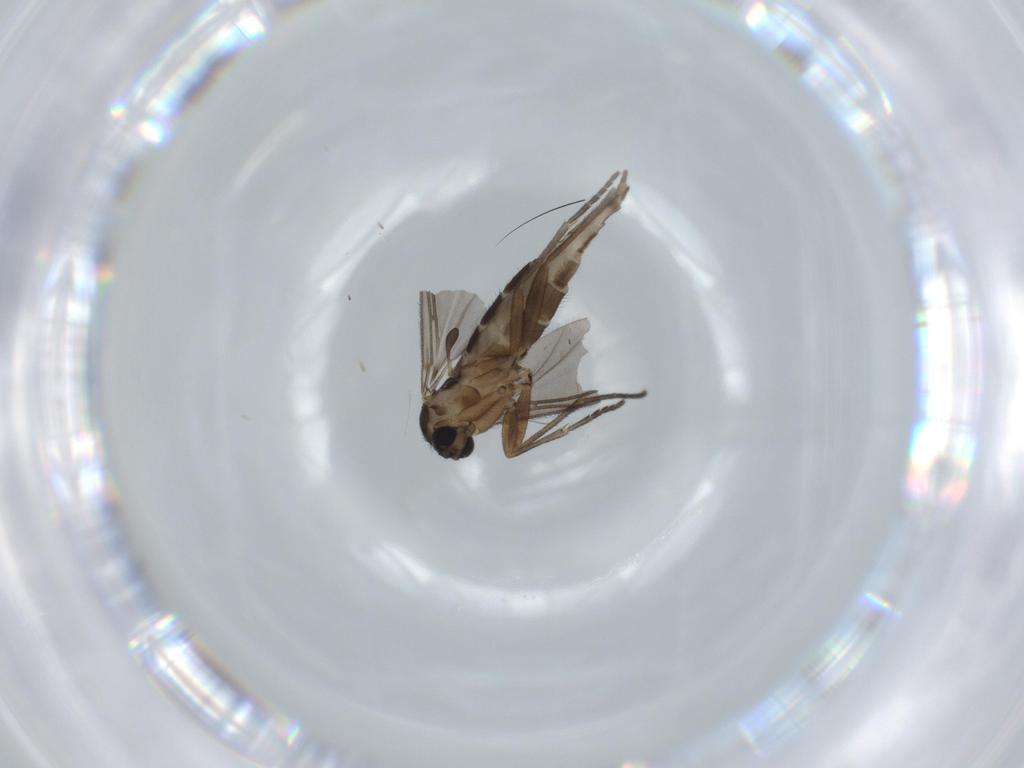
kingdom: Animalia
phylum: Arthropoda
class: Insecta
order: Diptera
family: Sciaridae
